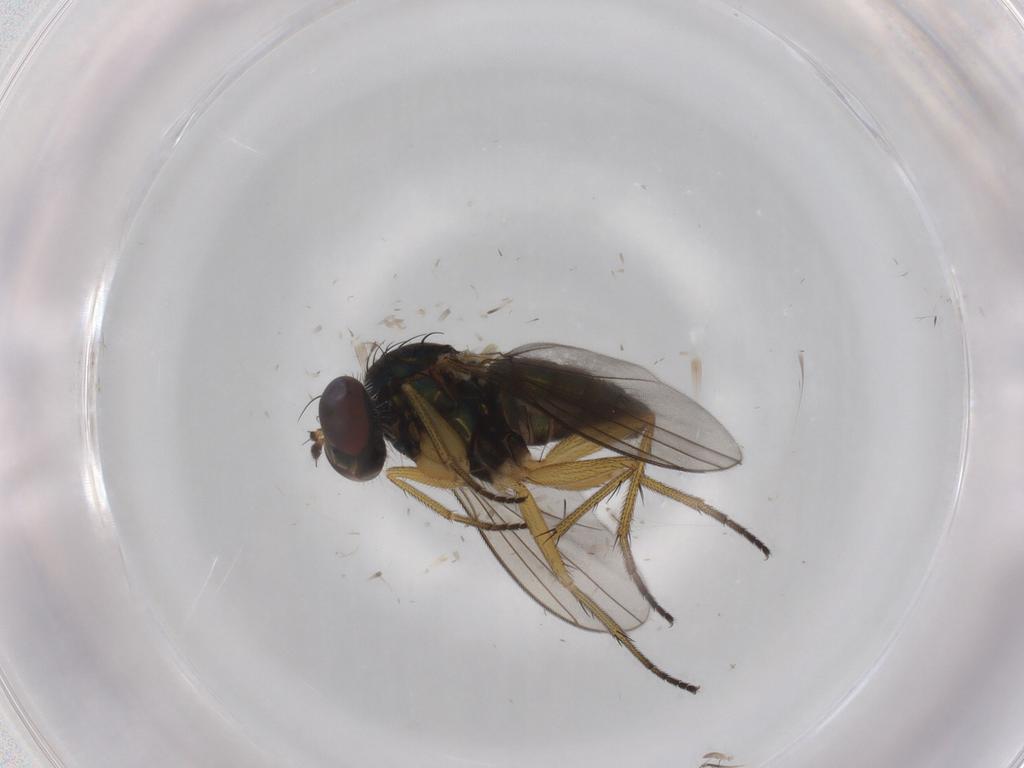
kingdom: Animalia
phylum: Arthropoda
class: Insecta
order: Diptera
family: Dolichopodidae
